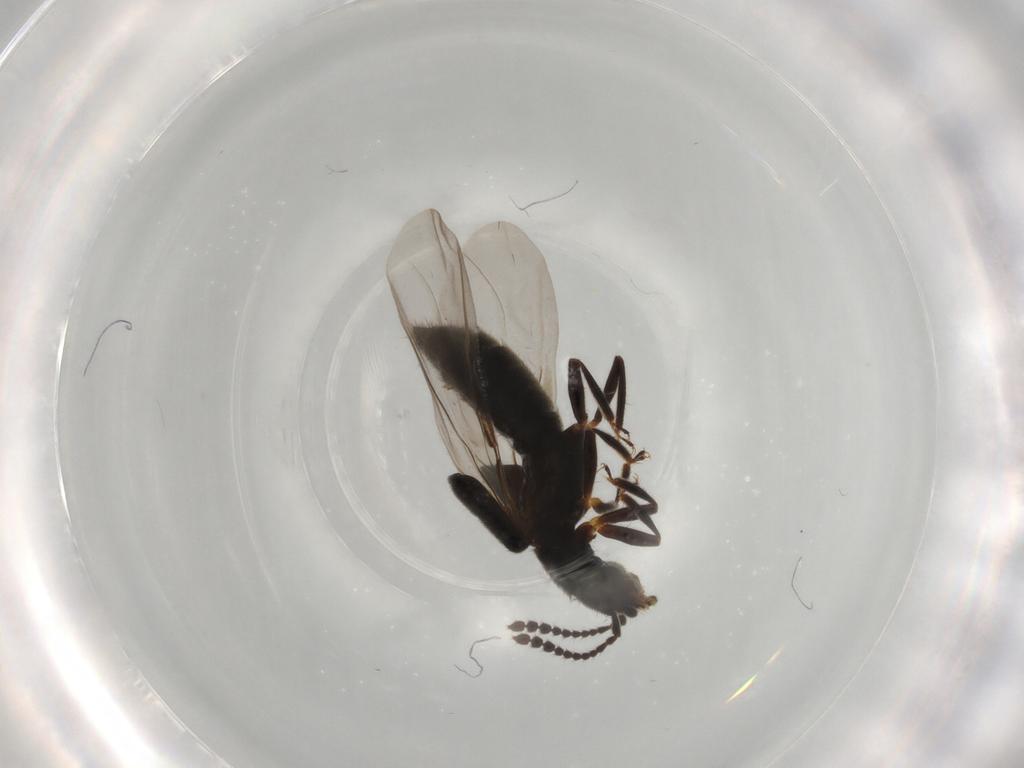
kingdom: Animalia
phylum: Arthropoda
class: Insecta
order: Coleoptera
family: Staphylinidae
